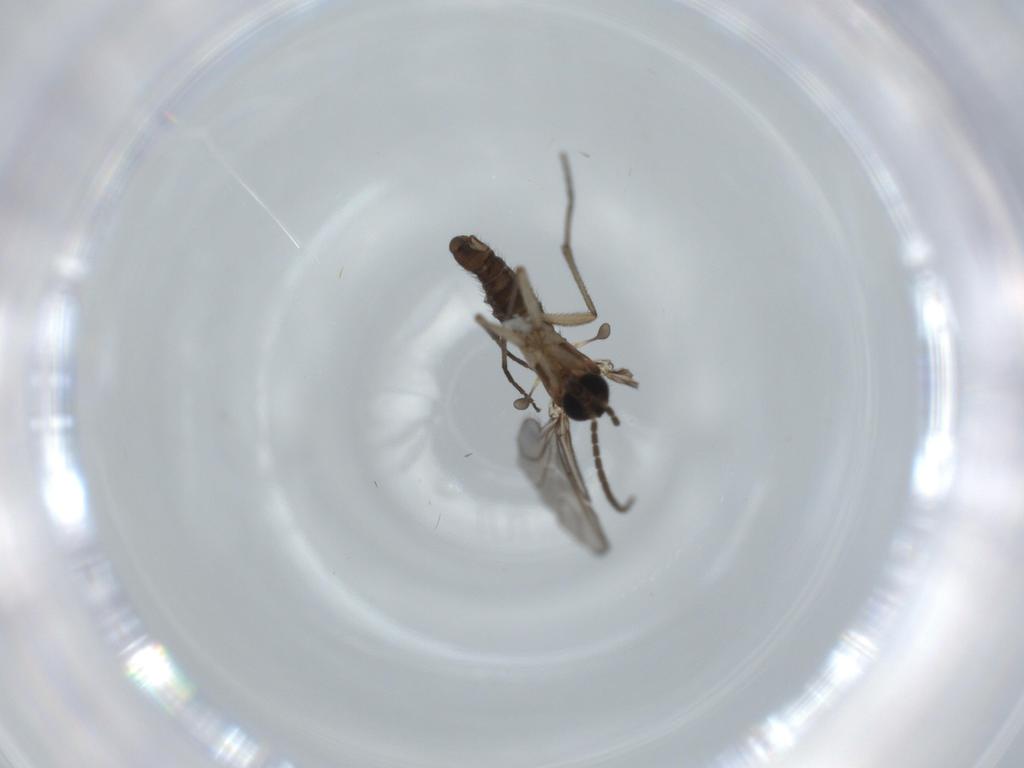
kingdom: Animalia
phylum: Arthropoda
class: Insecta
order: Diptera
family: Sciaridae
